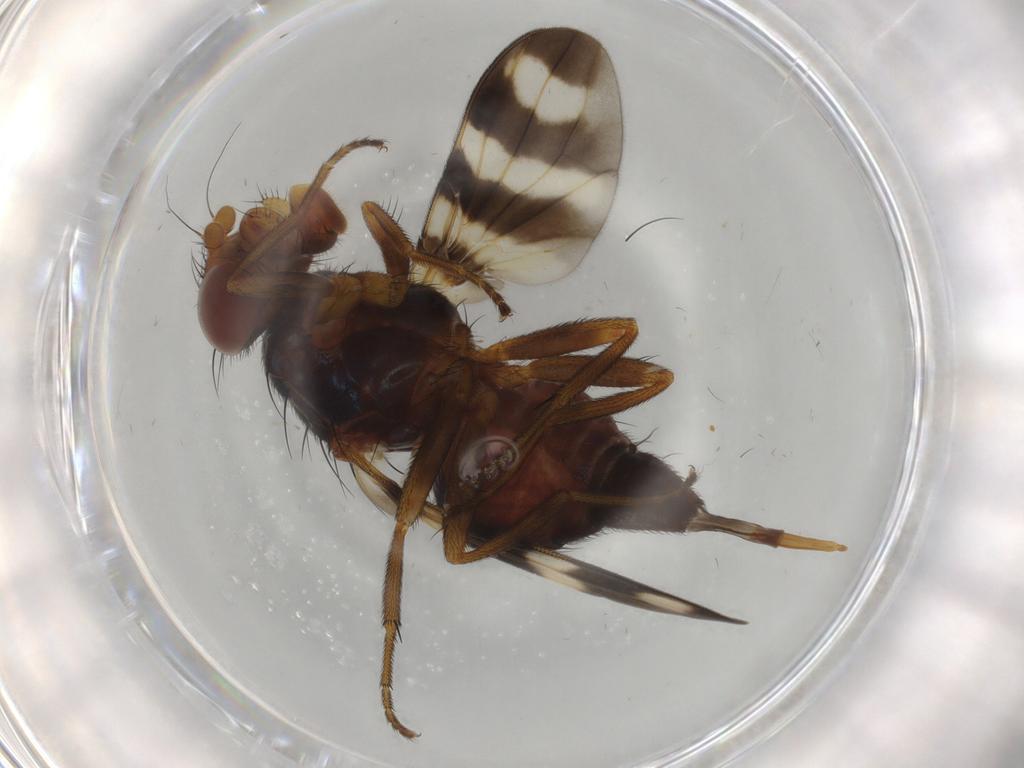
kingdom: Animalia
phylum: Arthropoda
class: Insecta
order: Diptera
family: Ulidiidae
